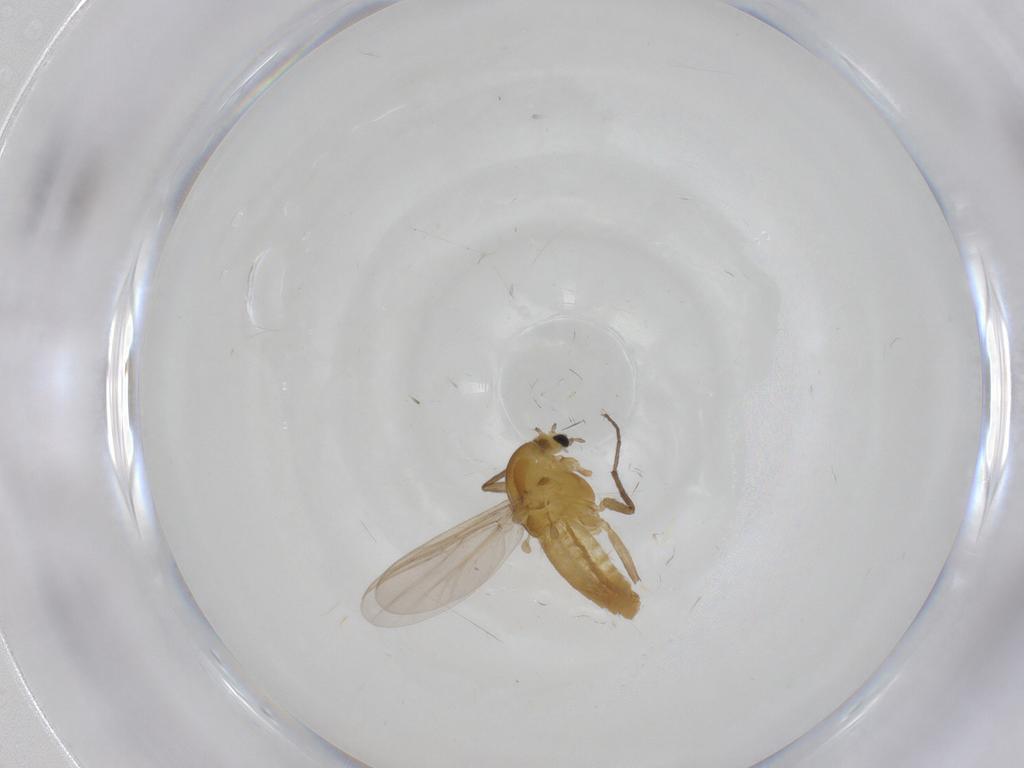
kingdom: Animalia
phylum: Arthropoda
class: Insecta
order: Diptera
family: Chironomidae
